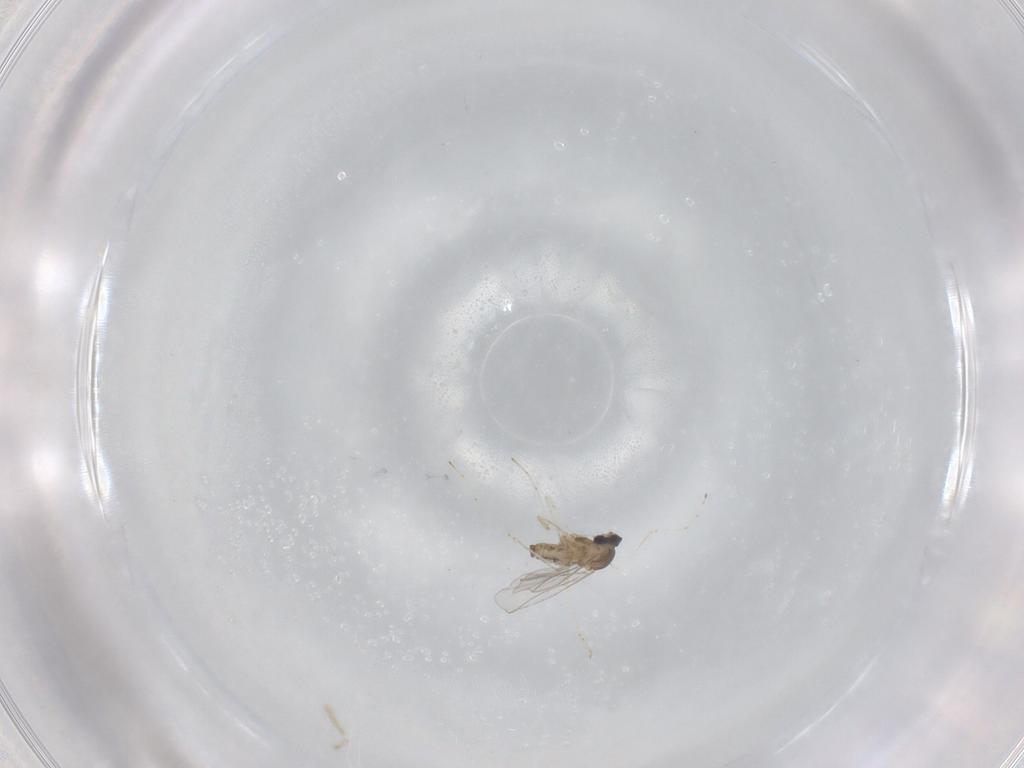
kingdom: Animalia
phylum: Arthropoda
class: Insecta
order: Diptera
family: Cecidomyiidae
